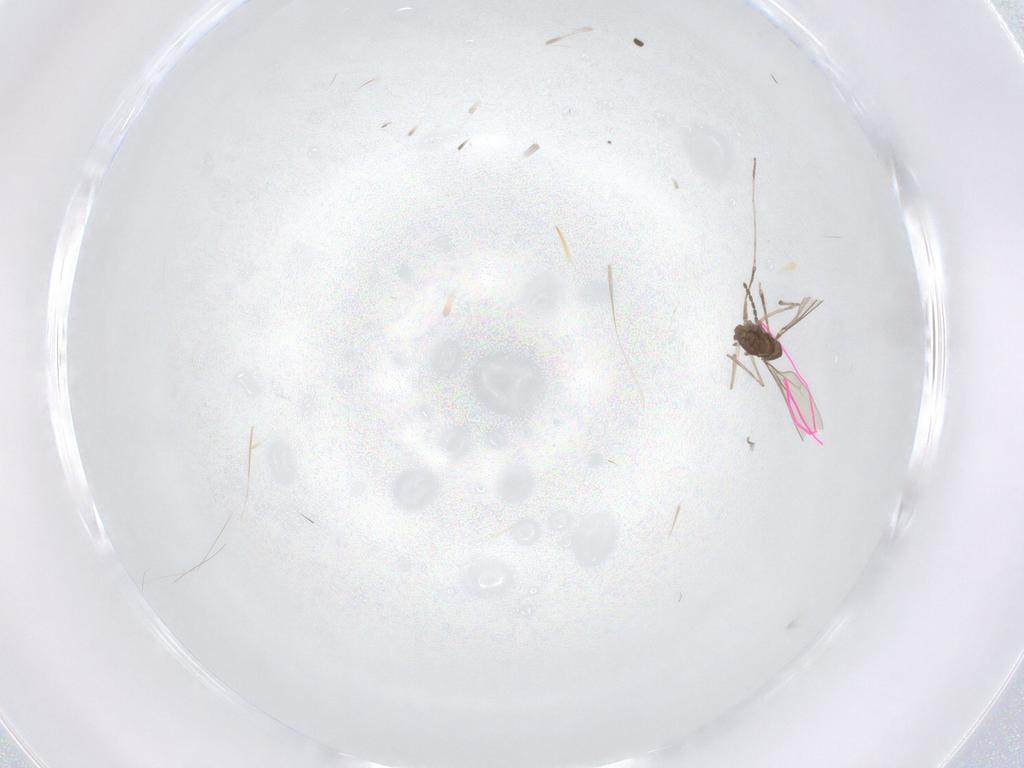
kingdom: Animalia
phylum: Arthropoda
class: Insecta
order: Diptera
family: Cecidomyiidae
